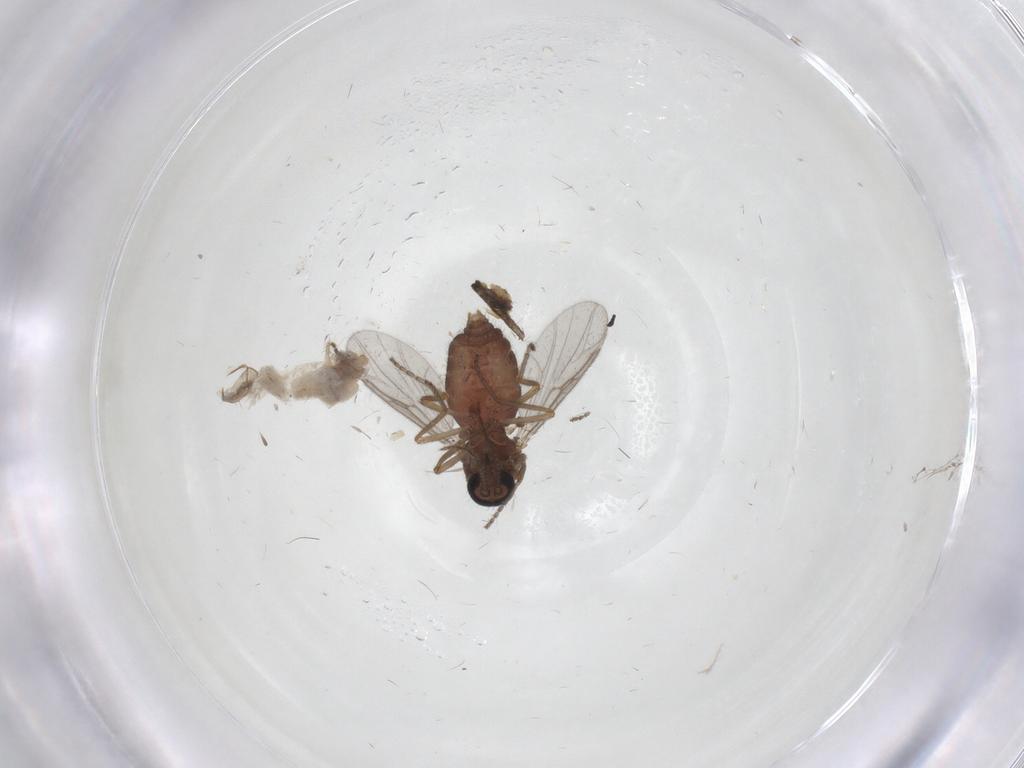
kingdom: Animalia
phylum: Arthropoda
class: Insecta
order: Diptera
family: Ceratopogonidae
